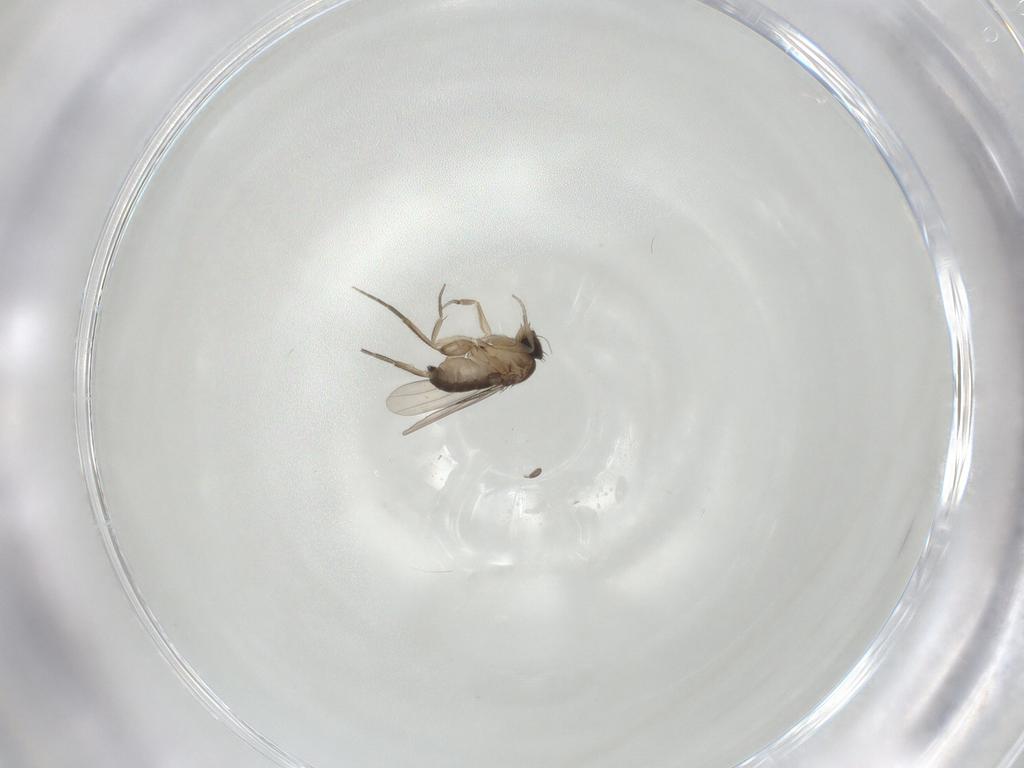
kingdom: Animalia
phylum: Arthropoda
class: Insecta
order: Diptera
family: Phoridae
